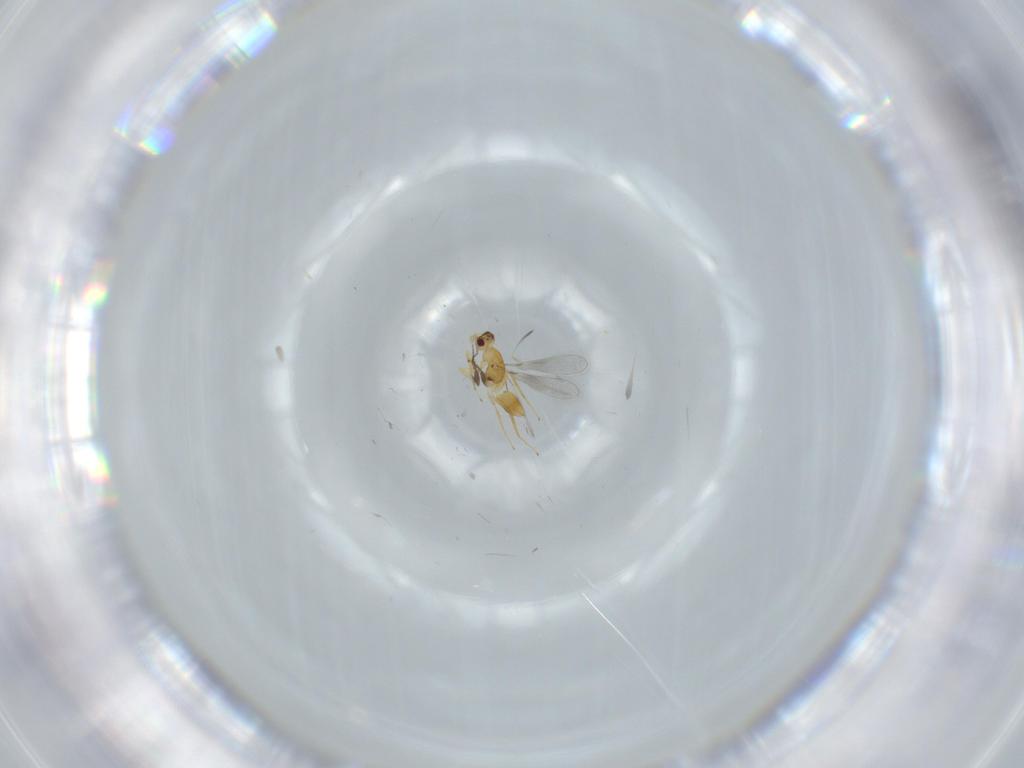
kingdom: Animalia
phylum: Arthropoda
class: Insecta
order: Hymenoptera
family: Mymaridae
